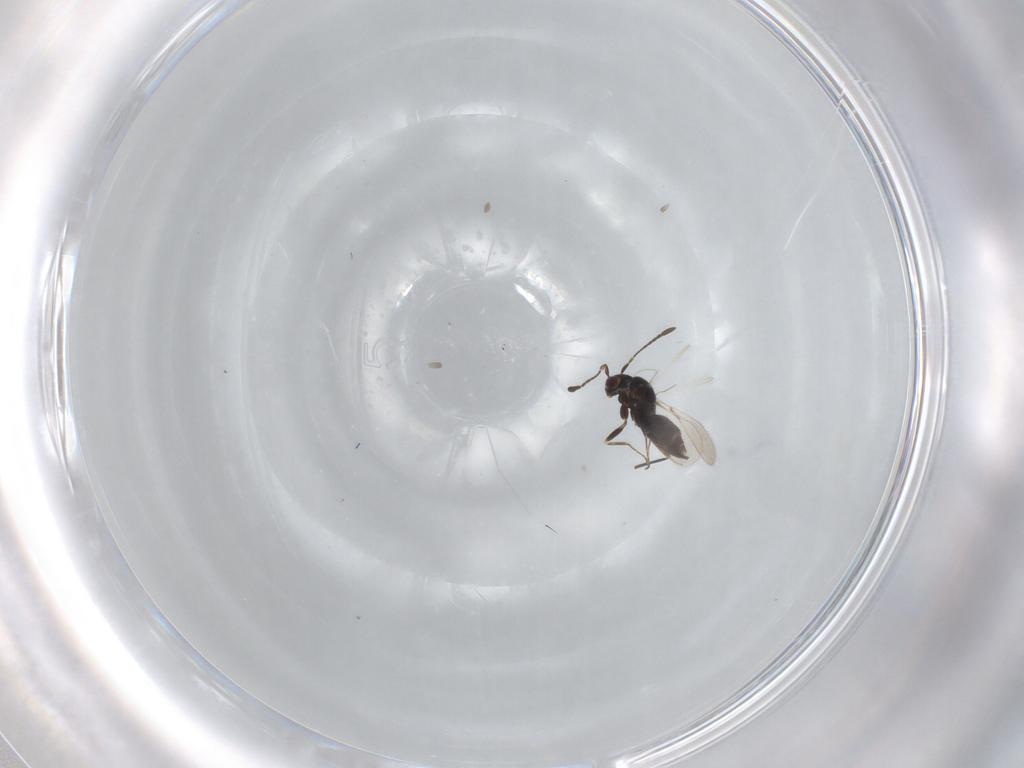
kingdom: Animalia
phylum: Arthropoda
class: Insecta
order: Hymenoptera
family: Mymaridae
